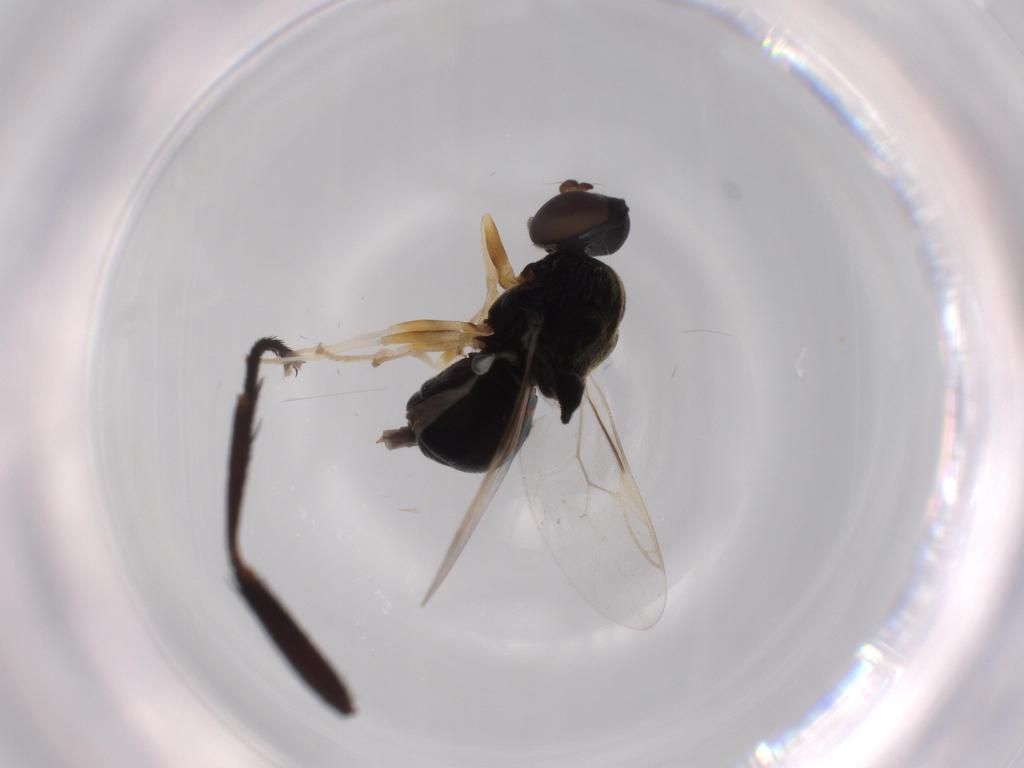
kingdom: Animalia
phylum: Arthropoda
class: Insecta
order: Diptera
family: Stratiomyidae
